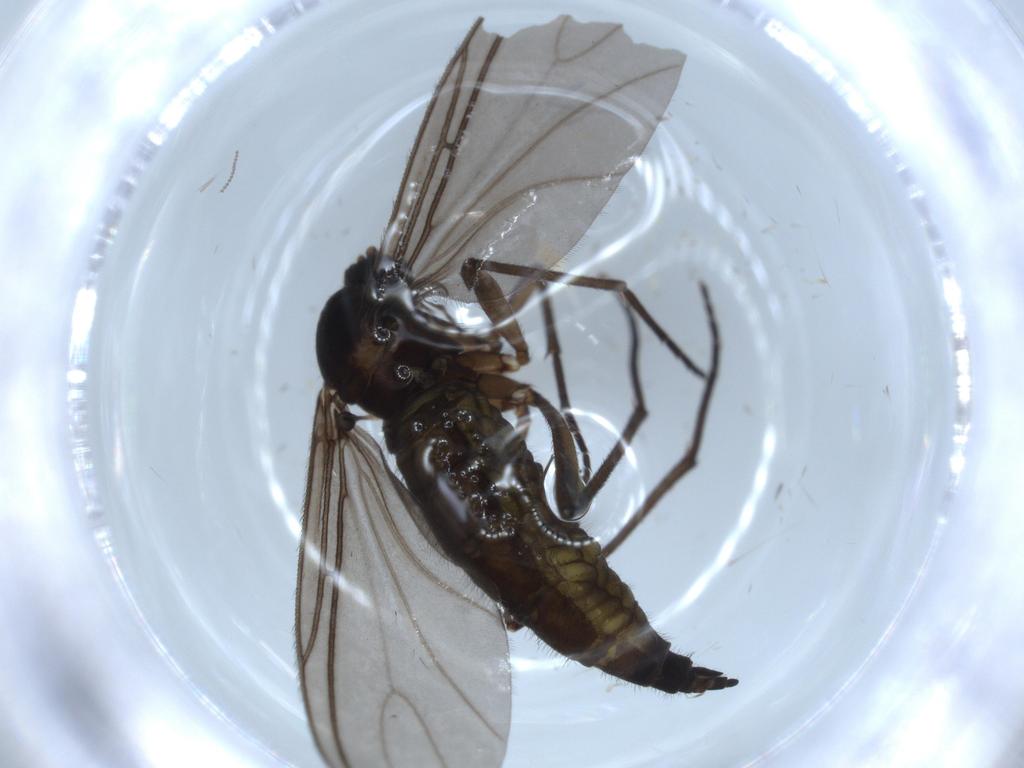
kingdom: Animalia
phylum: Arthropoda
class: Insecta
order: Diptera
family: Sciaridae
